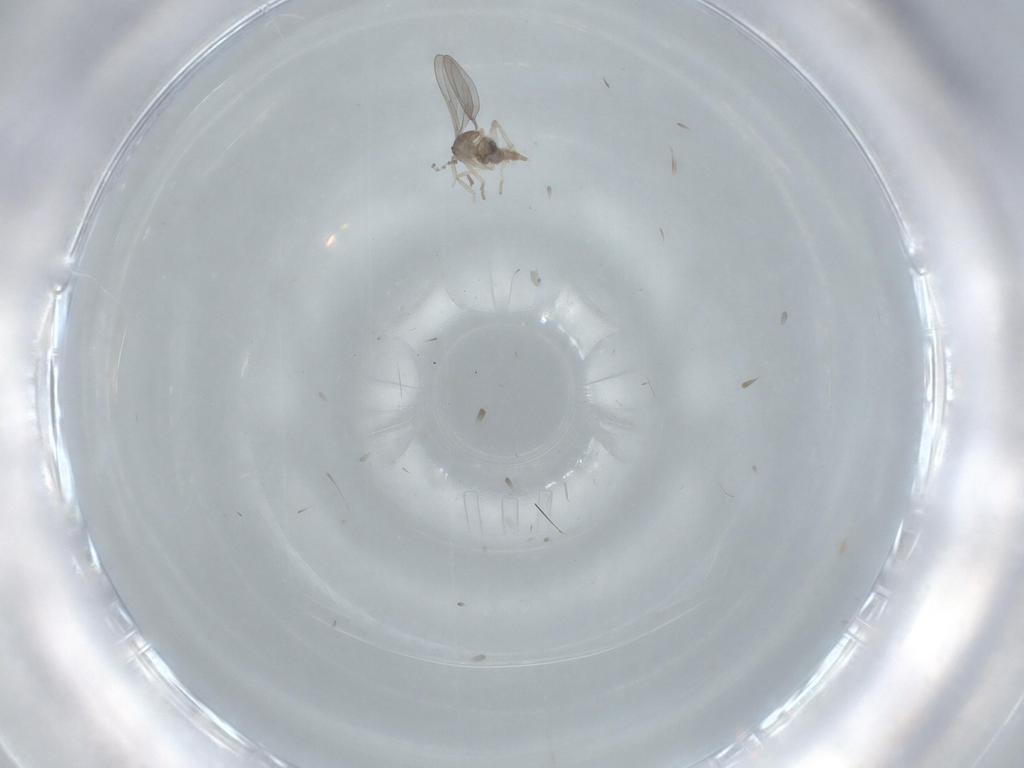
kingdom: Animalia
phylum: Arthropoda
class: Insecta
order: Diptera
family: Cecidomyiidae
